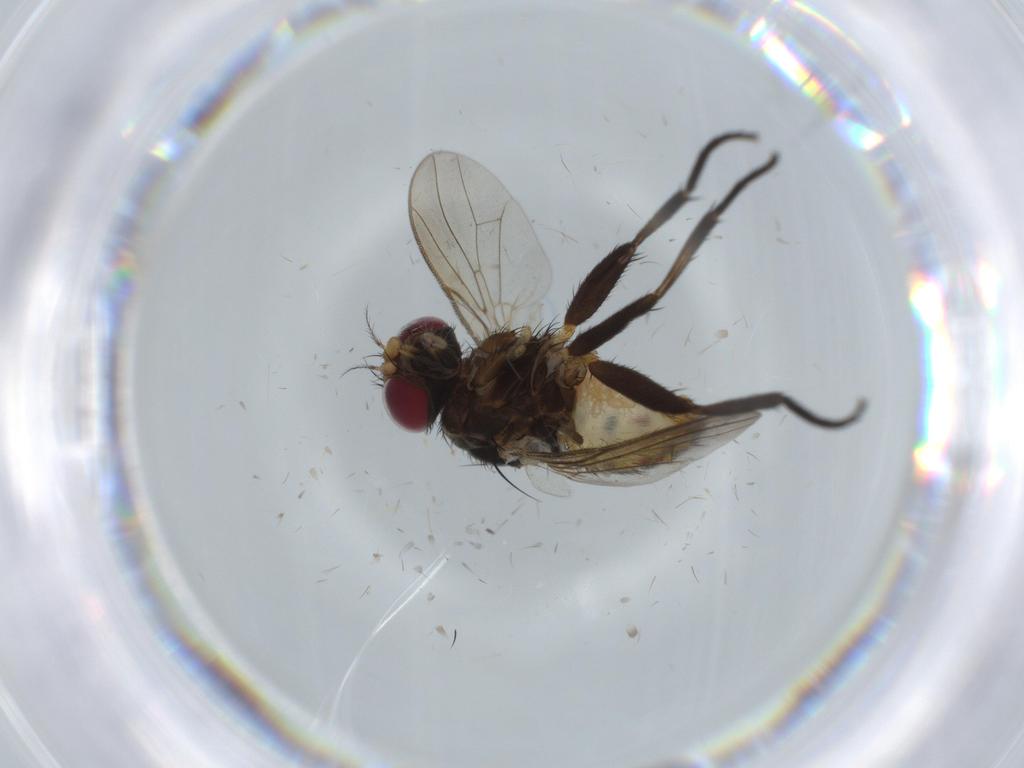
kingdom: Animalia
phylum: Arthropoda
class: Insecta
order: Diptera
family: Anthomyiidae
